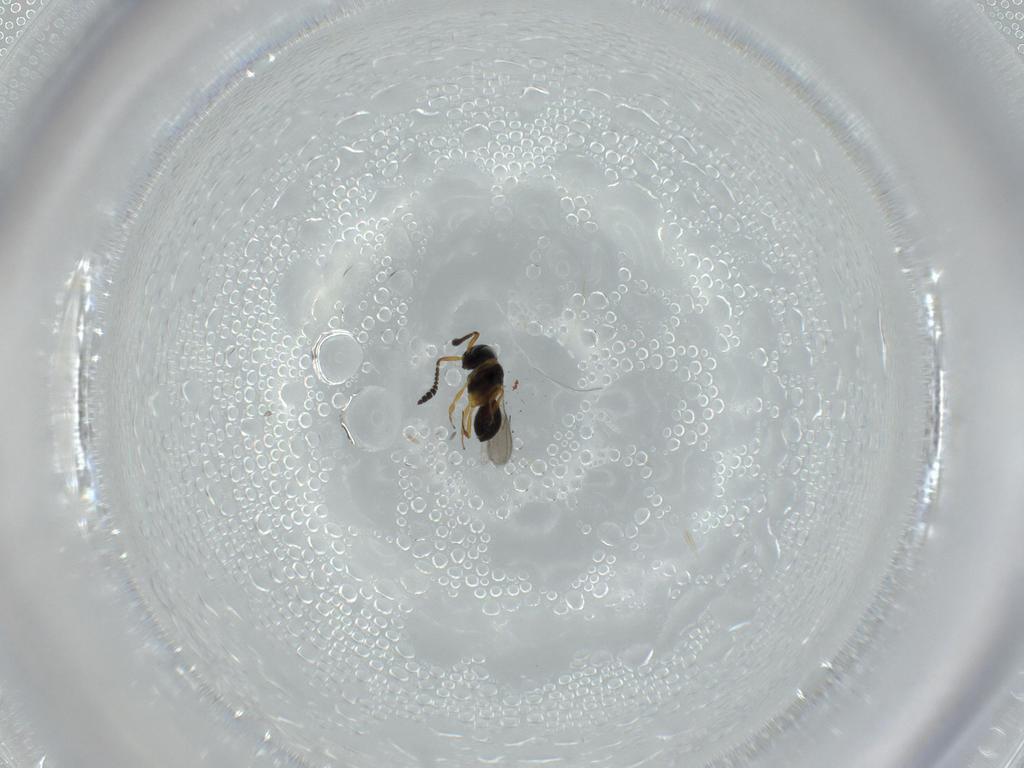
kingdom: Animalia
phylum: Arthropoda
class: Insecta
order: Hymenoptera
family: Scelionidae
